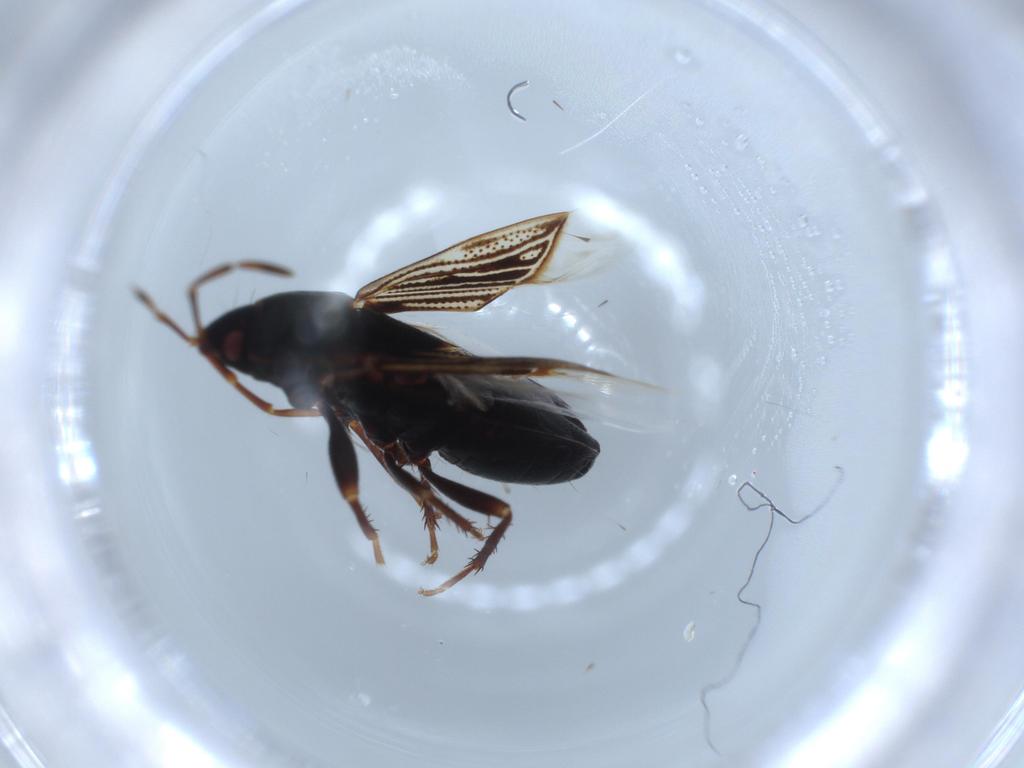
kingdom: Animalia
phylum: Arthropoda
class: Insecta
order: Hemiptera
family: Rhyparochromidae
